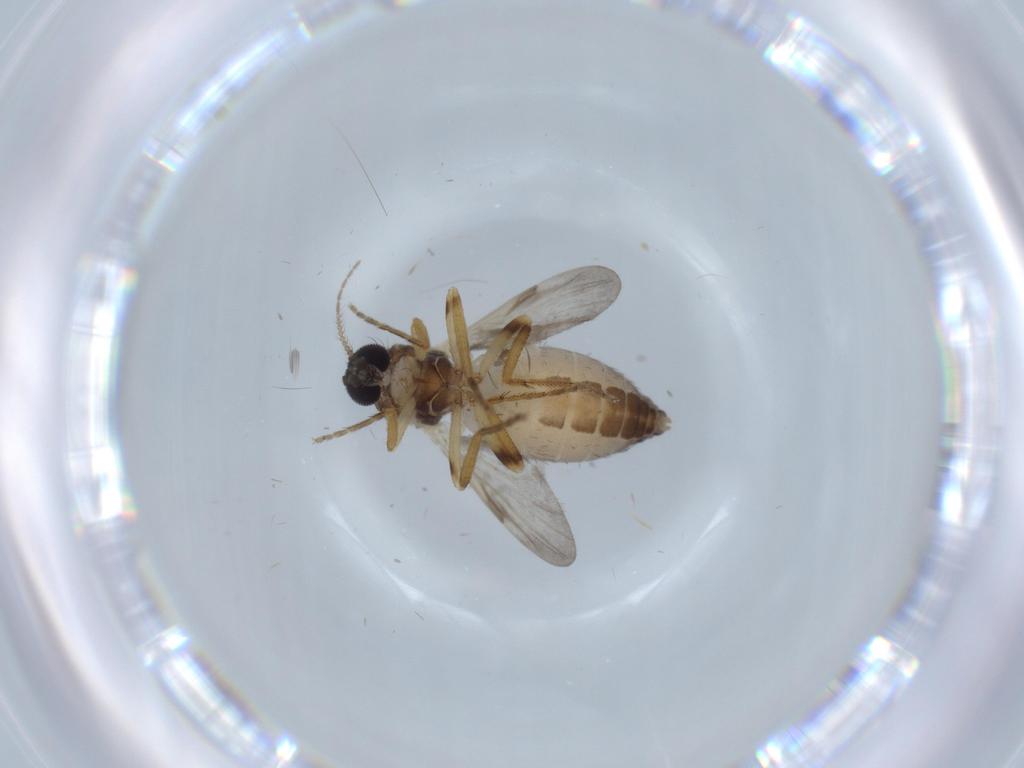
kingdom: Animalia
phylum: Arthropoda
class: Insecta
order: Diptera
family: Ceratopogonidae
